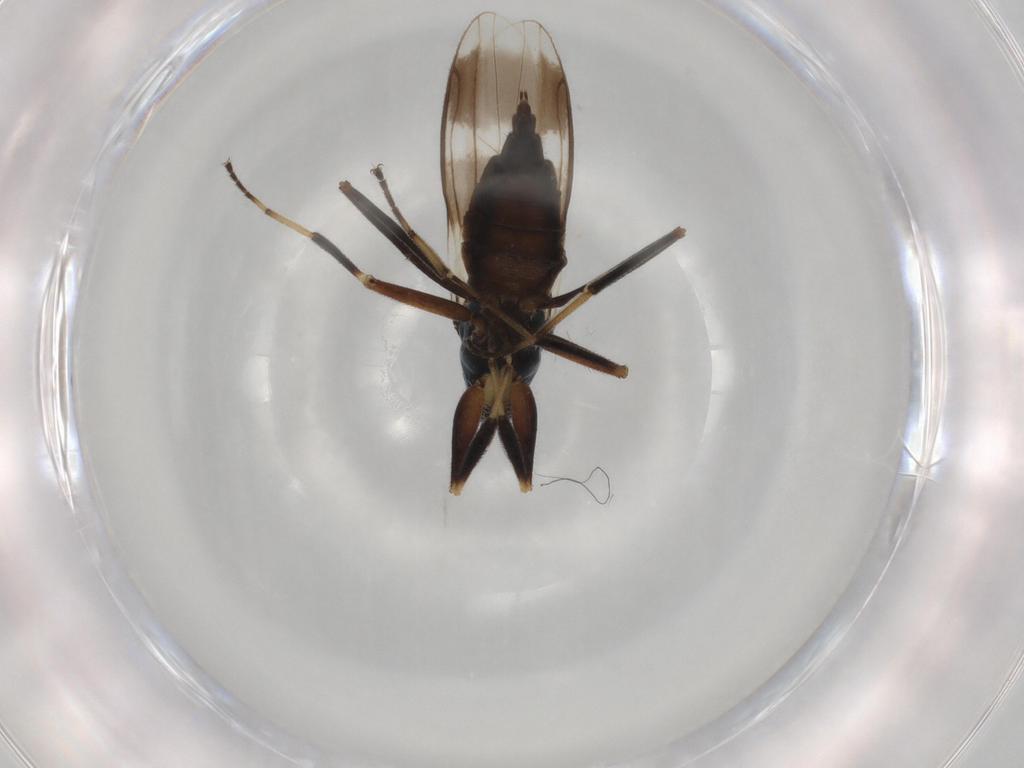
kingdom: Animalia
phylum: Arthropoda
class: Insecta
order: Diptera
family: Hybotidae
